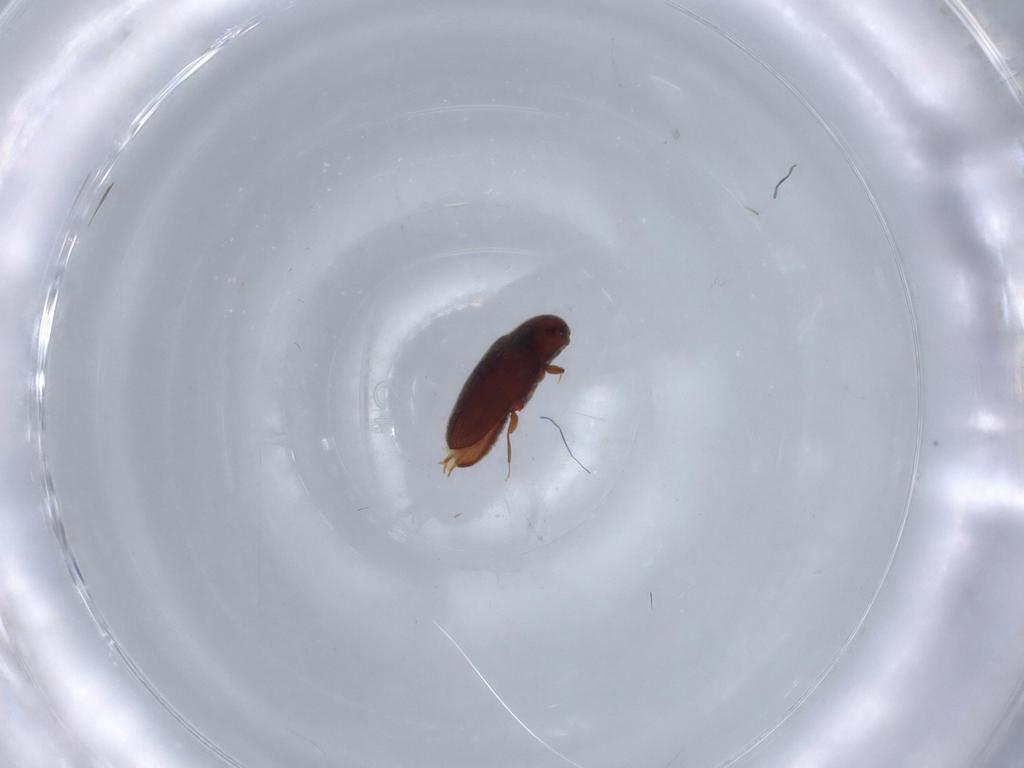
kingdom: Animalia
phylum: Arthropoda
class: Insecta
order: Coleoptera
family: Throscidae
